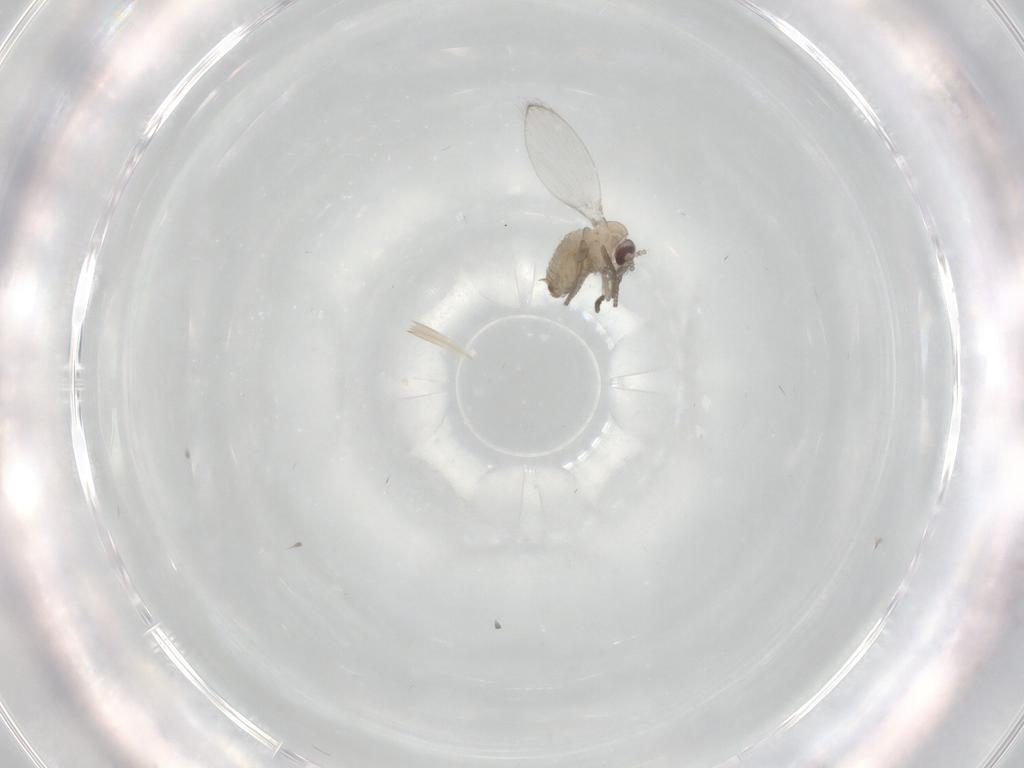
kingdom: Animalia
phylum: Arthropoda
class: Insecta
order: Diptera
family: Psychodidae
